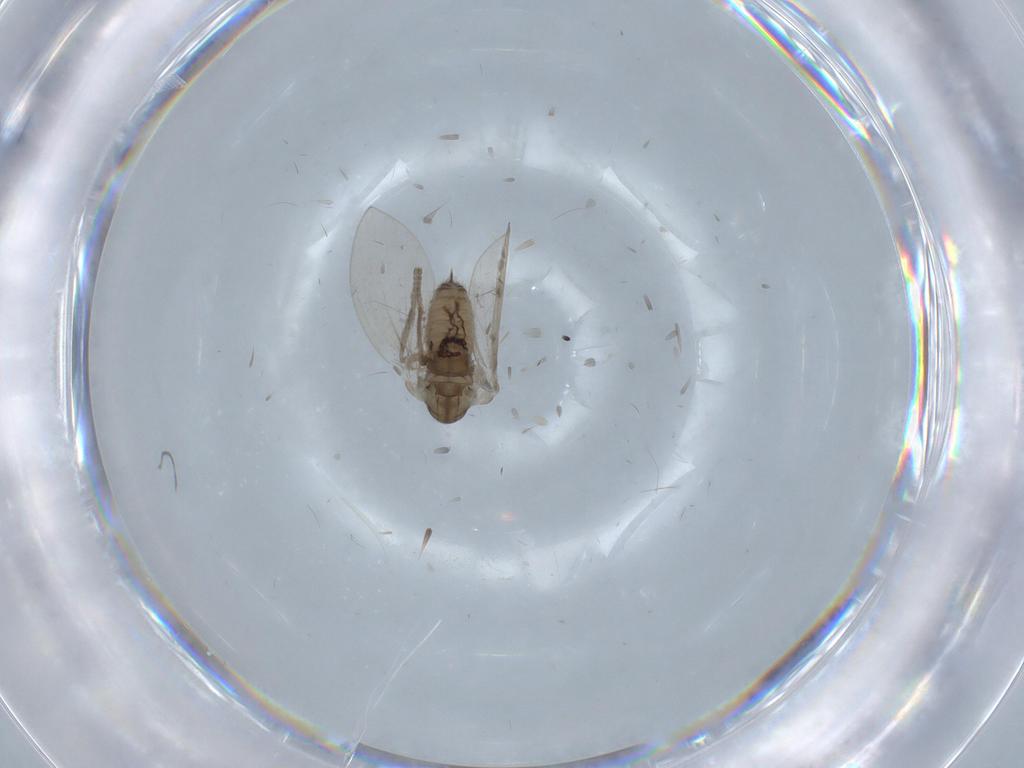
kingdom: Animalia
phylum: Arthropoda
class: Insecta
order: Diptera
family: Psychodidae
